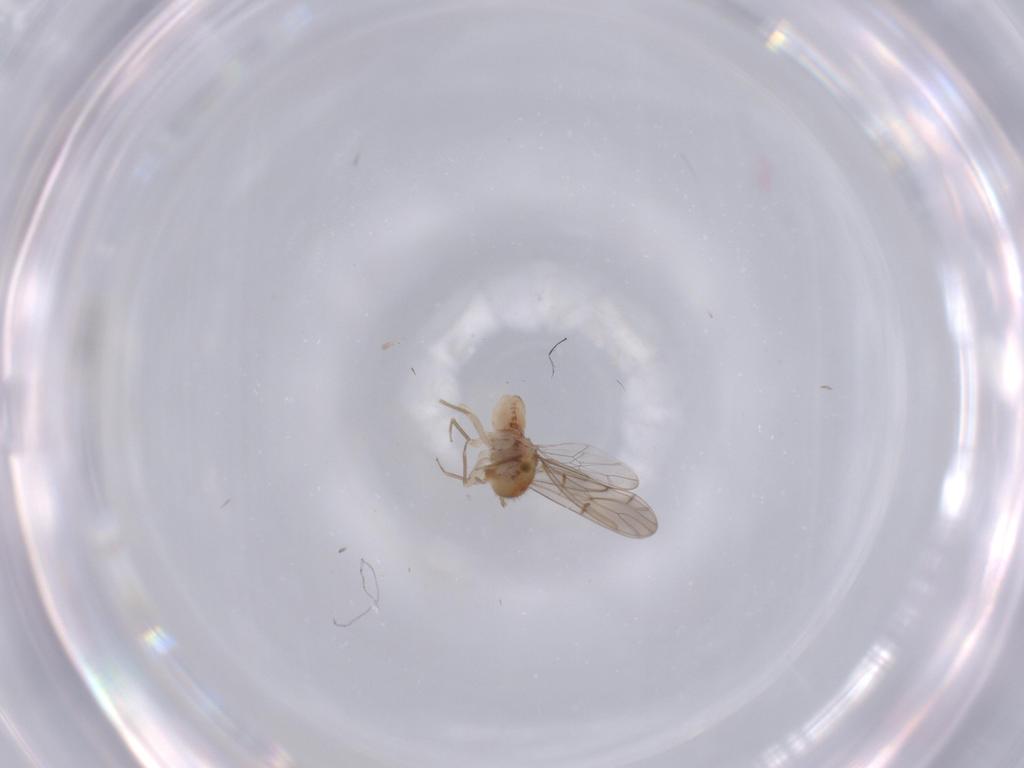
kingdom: Animalia
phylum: Arthropoda
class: Insecta
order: Psocodea
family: Ectopsocidae
